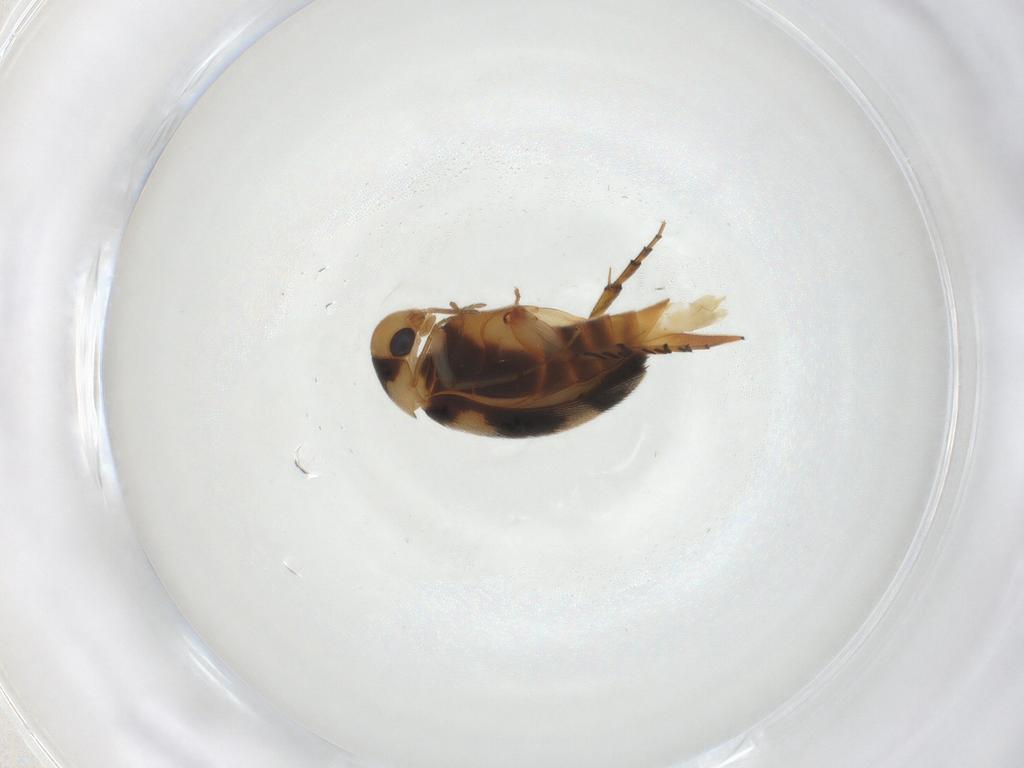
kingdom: Animalia
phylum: Arthropoda
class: Insecta
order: Coleoptera
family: Mordellidae
